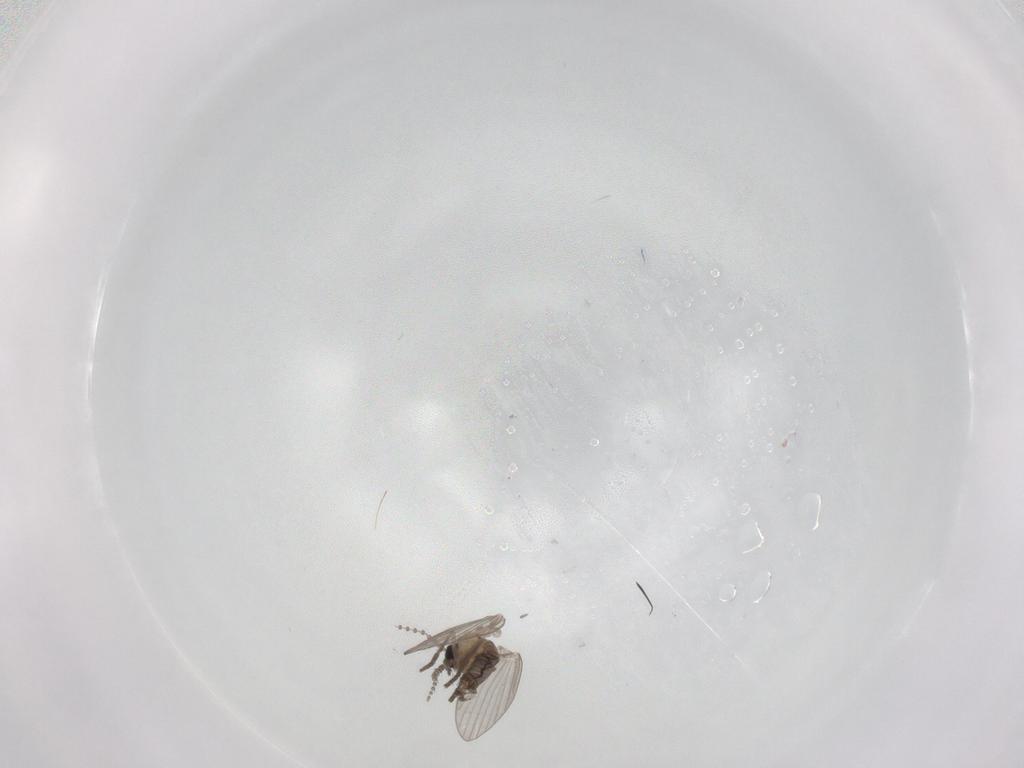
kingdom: Animalia
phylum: Arthropoda
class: Insecta
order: Diptera
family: Psychodidae
